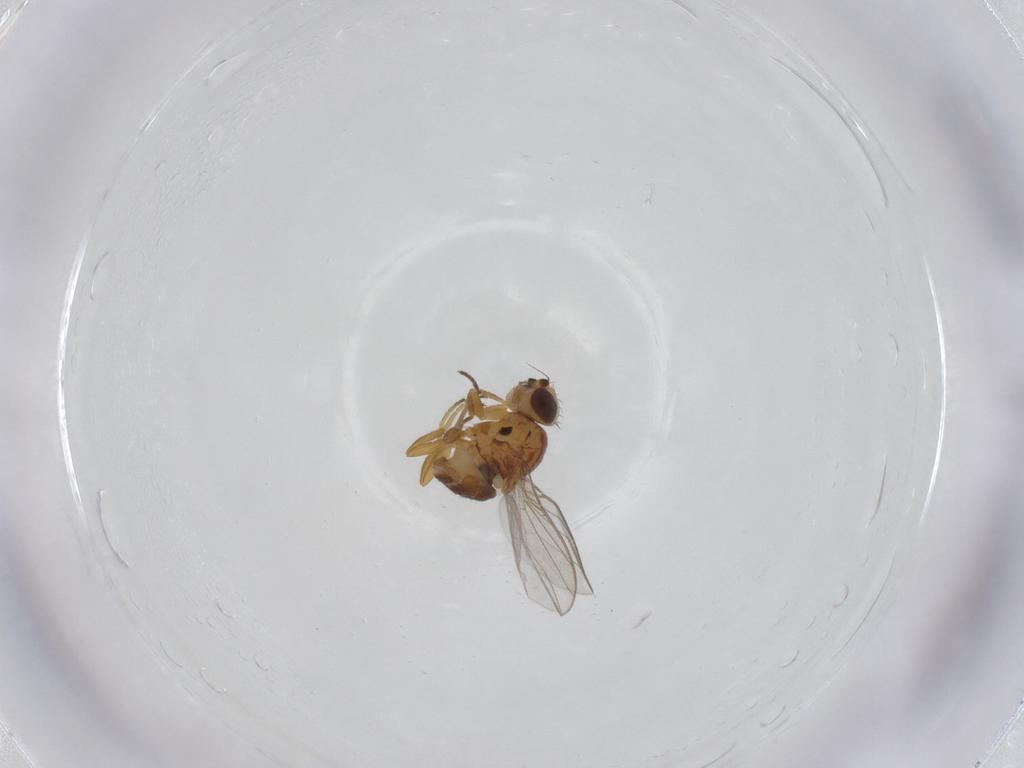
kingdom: Animalia
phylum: Arthropoda
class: Insecta
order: Diptera
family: Chloropidae
